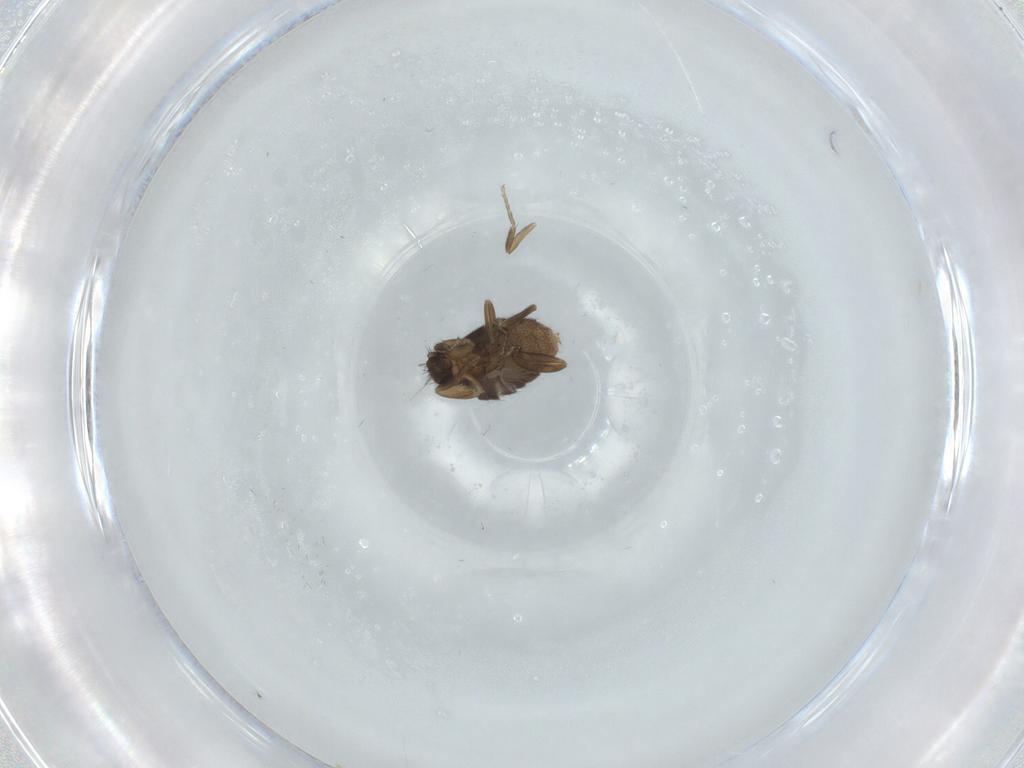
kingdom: Animalia
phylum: Arthropoda
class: Insecta
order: Diptera
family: Phoridae
